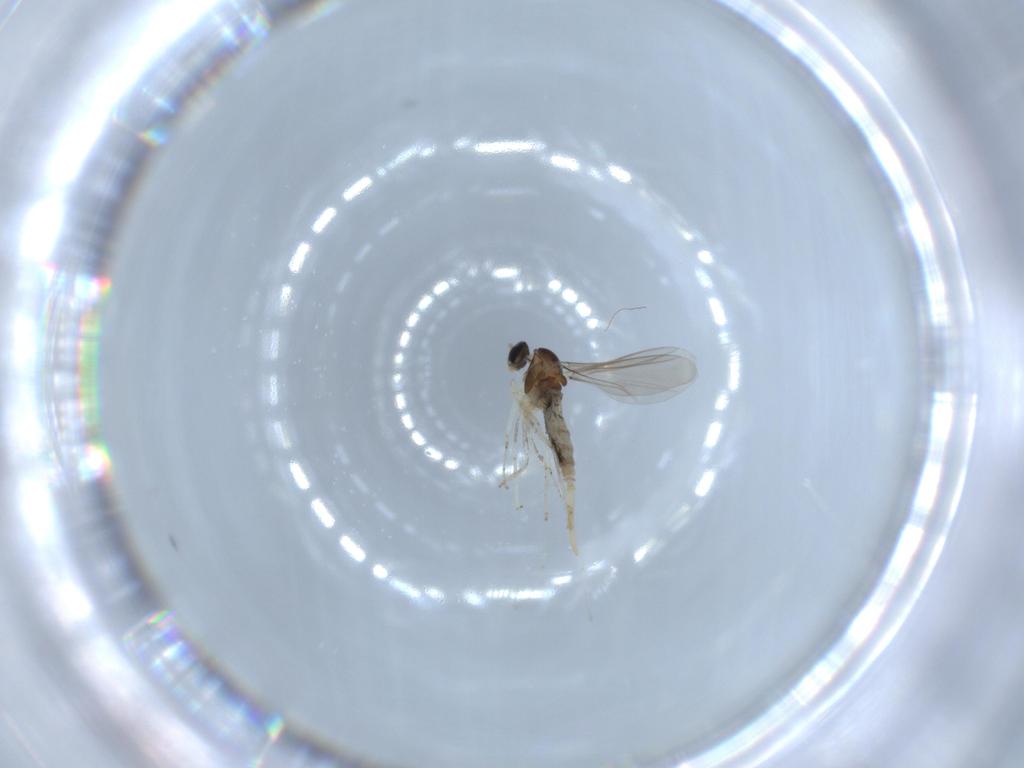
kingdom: Animalia
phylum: Arthropoda
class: Insecta
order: Diptera
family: Cecidomyiidae
